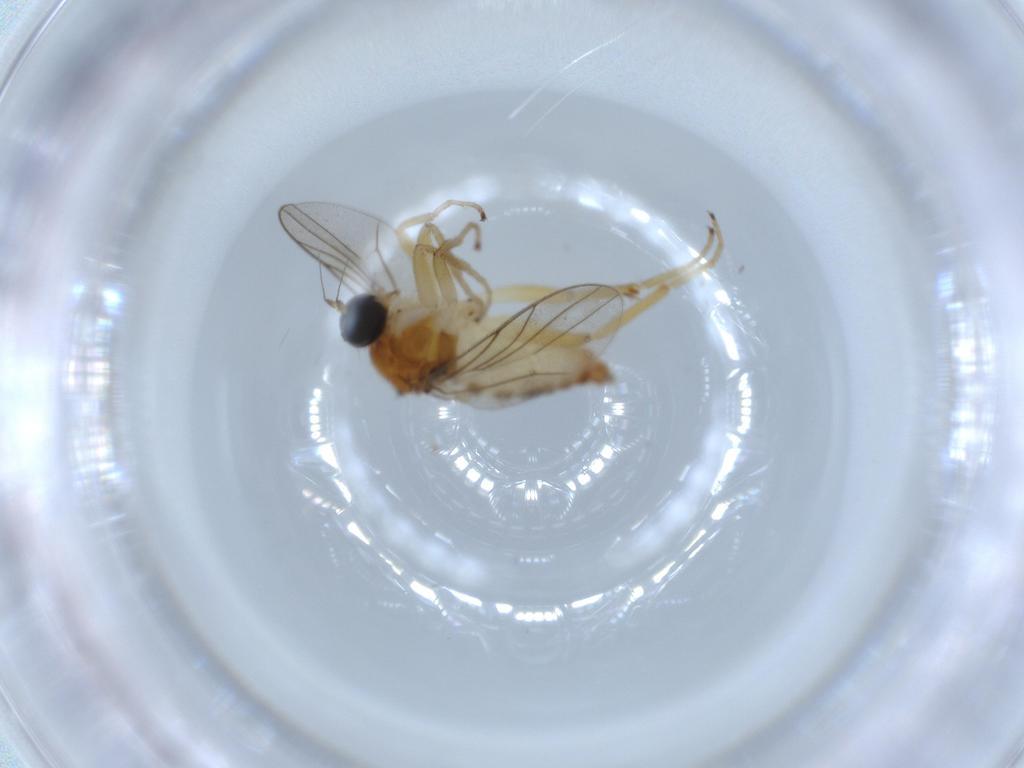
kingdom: Animalia
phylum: Arthropoda
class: Insecta
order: Diptera
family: Hybotidae
